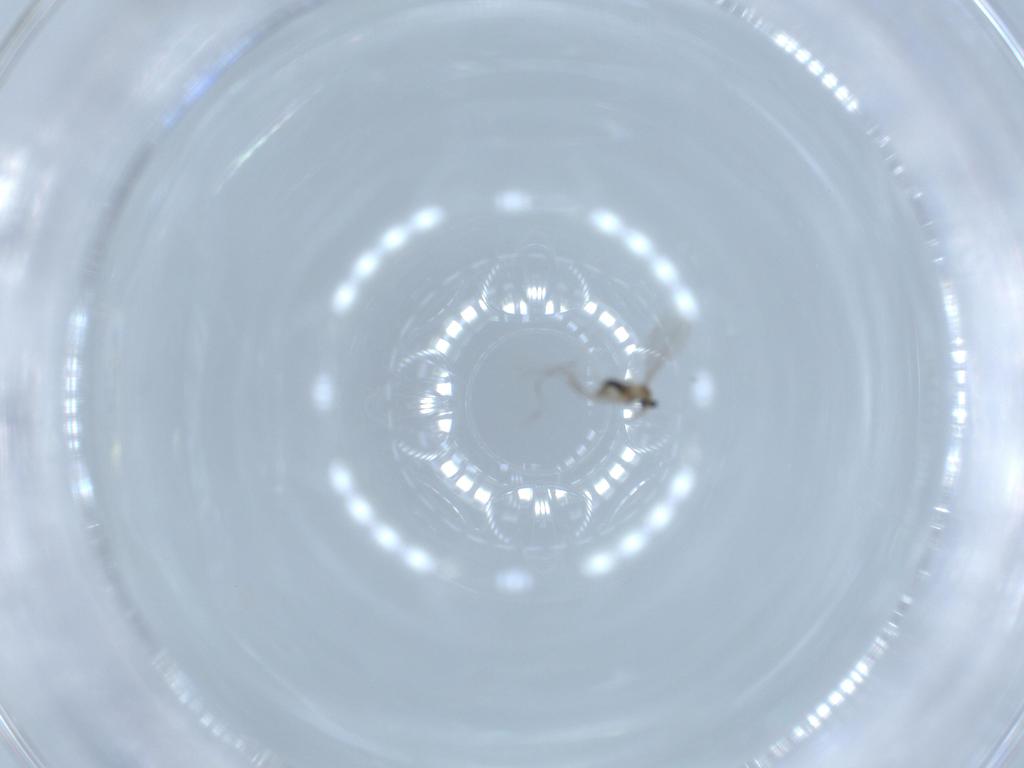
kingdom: Animalia
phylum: Arthropoda
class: Insecta
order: Diptera
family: Cecidomyiidae
